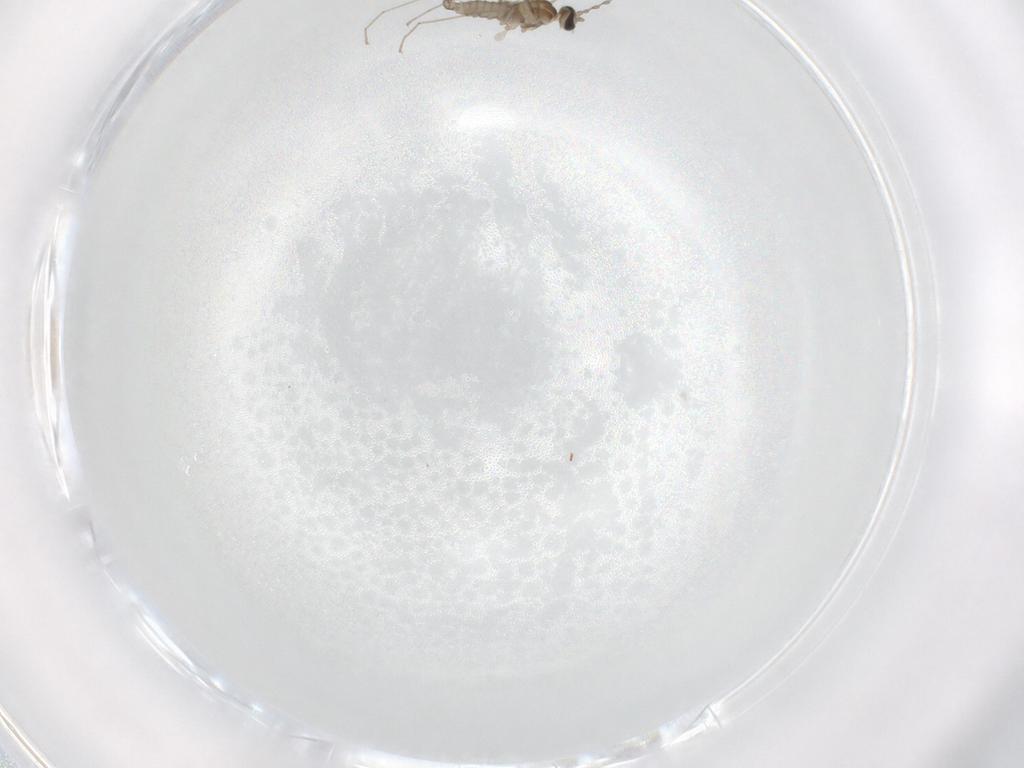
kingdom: Animalia
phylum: Arthropoda
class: Insecta
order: Diptera
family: Cecidomyiidae
